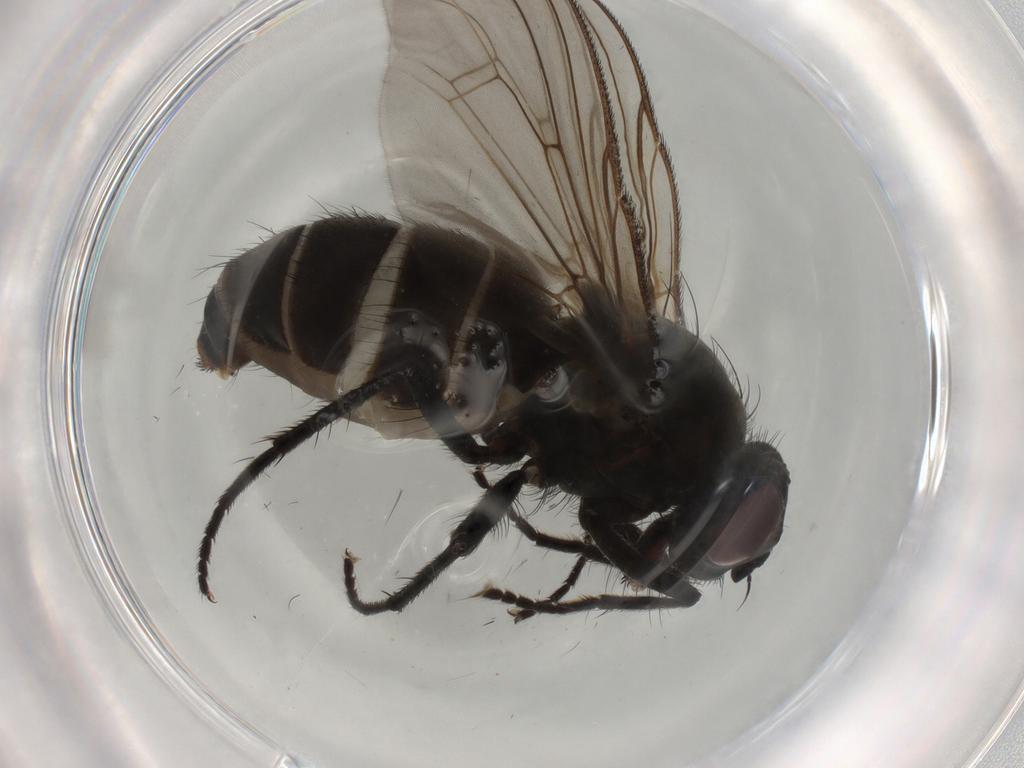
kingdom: Animalia
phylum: Arthropoda
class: Insecta
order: Diptera
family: Muscidae
